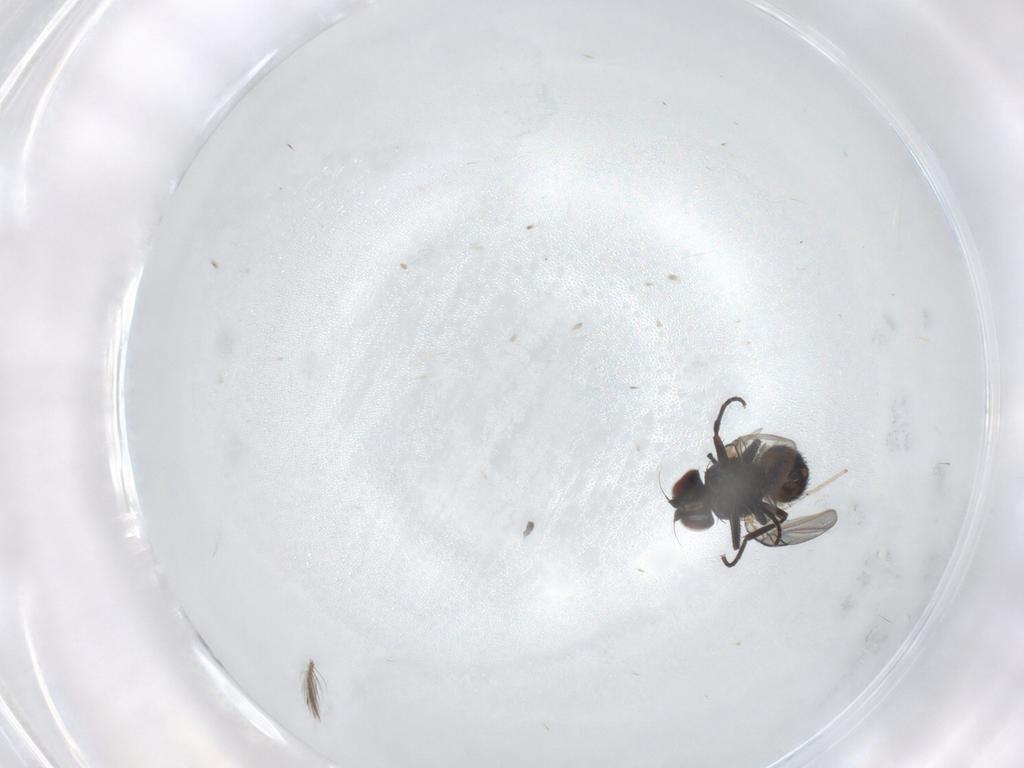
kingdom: Animalia
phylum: Arthropoda
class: Insecta
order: Diptera
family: Ceratopogonidae
